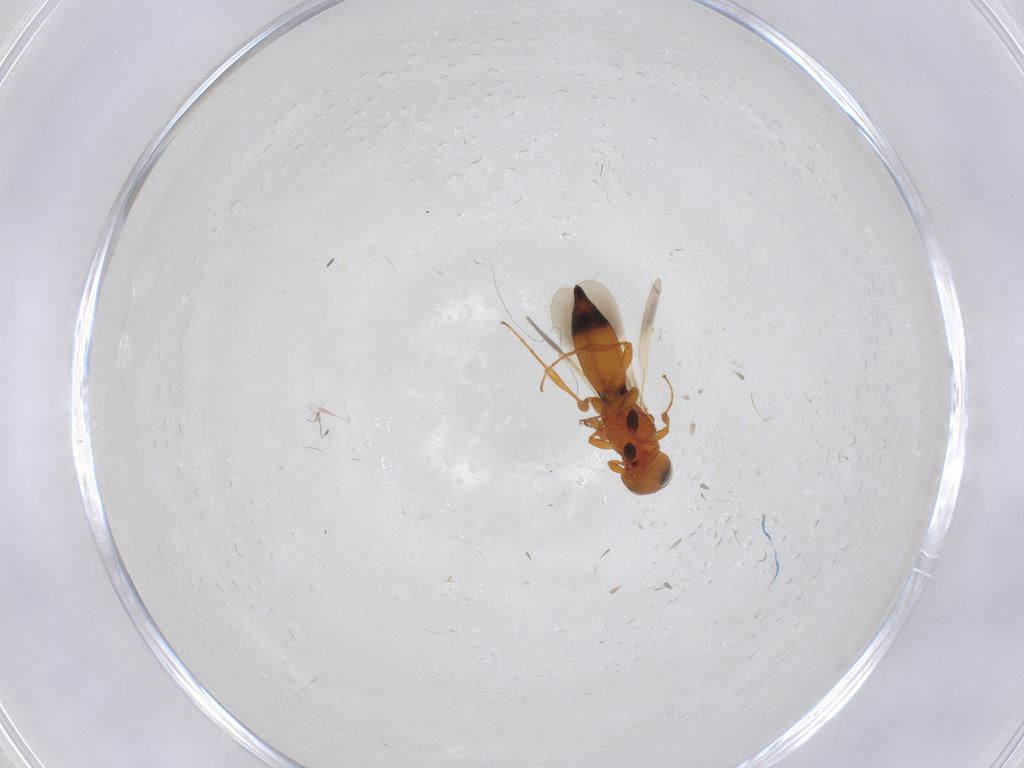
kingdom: Animalia
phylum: Arthropoda
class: Insecta
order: Hymenoptera
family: Platygastridae
